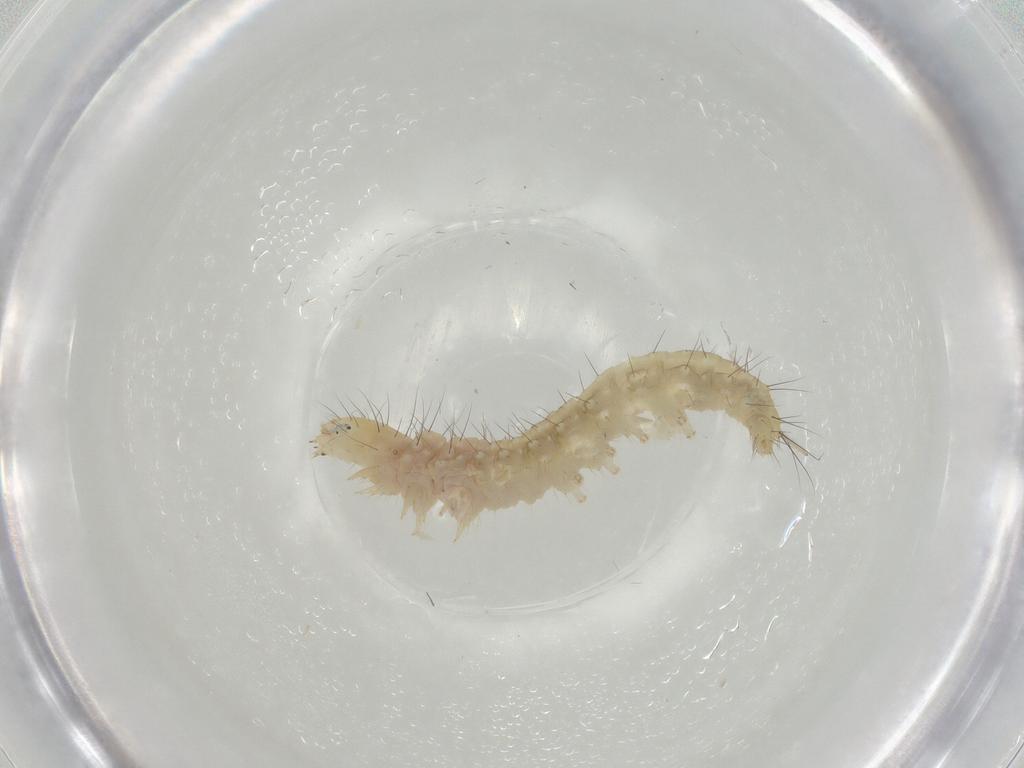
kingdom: Animalia
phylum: Arthropoda
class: Insecta
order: Lepidoptera
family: Gelechiidae
